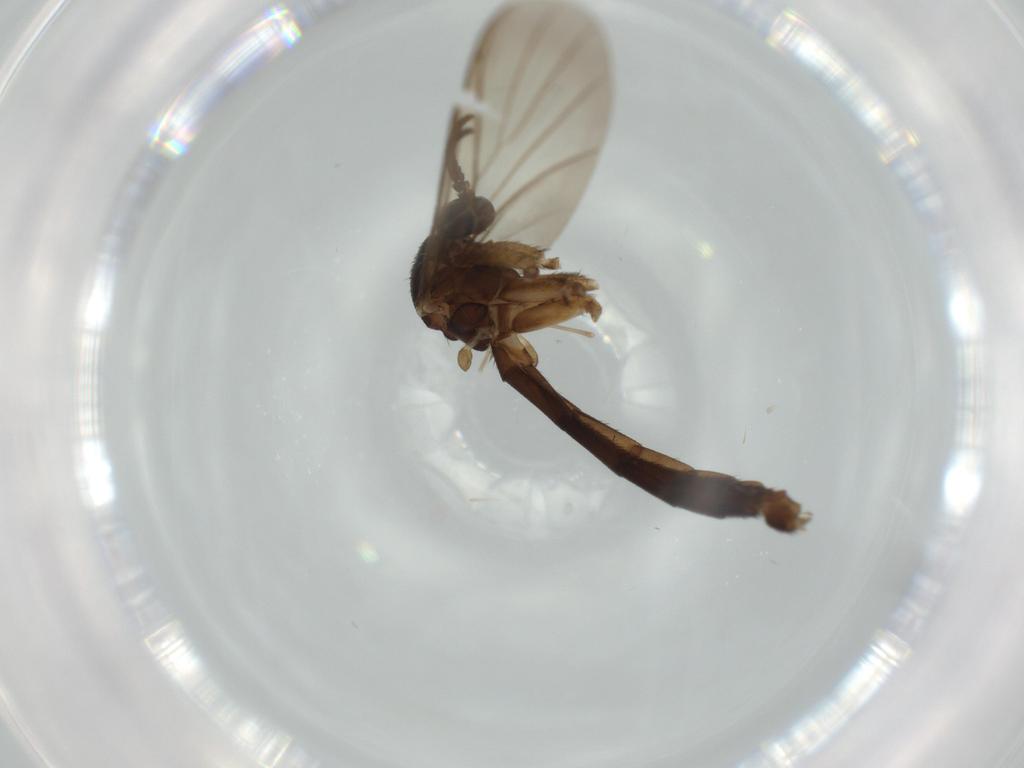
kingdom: Animalia
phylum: Arthropoda
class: Insecta
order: Diptera
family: Keroplatidae
